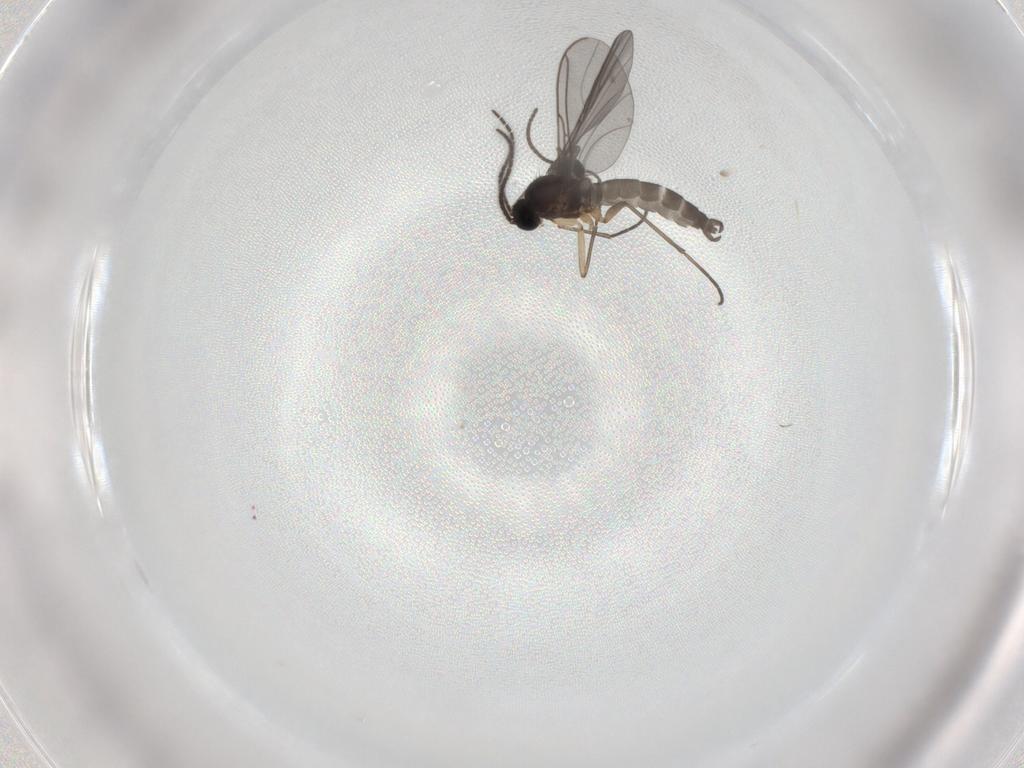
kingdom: Animalia
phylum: Arthropoda
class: Insecta
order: Diptera
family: Sciaridae
